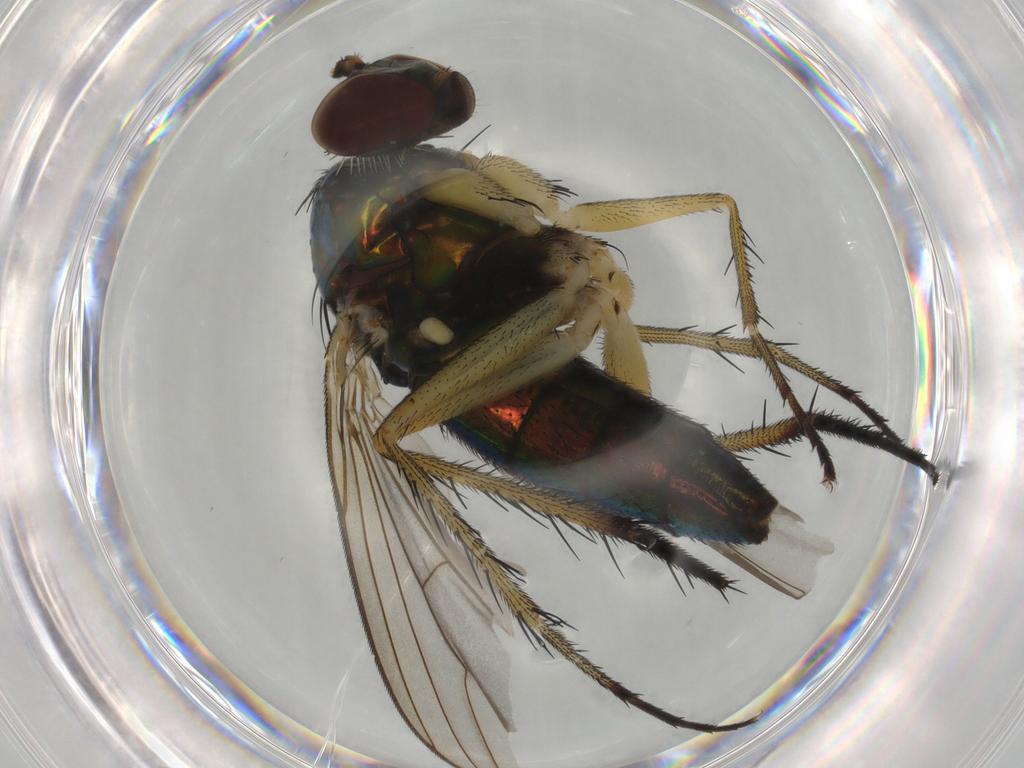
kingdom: Animalia
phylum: Arthropoda
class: Insecta
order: Diptera
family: Dolichopodidae
